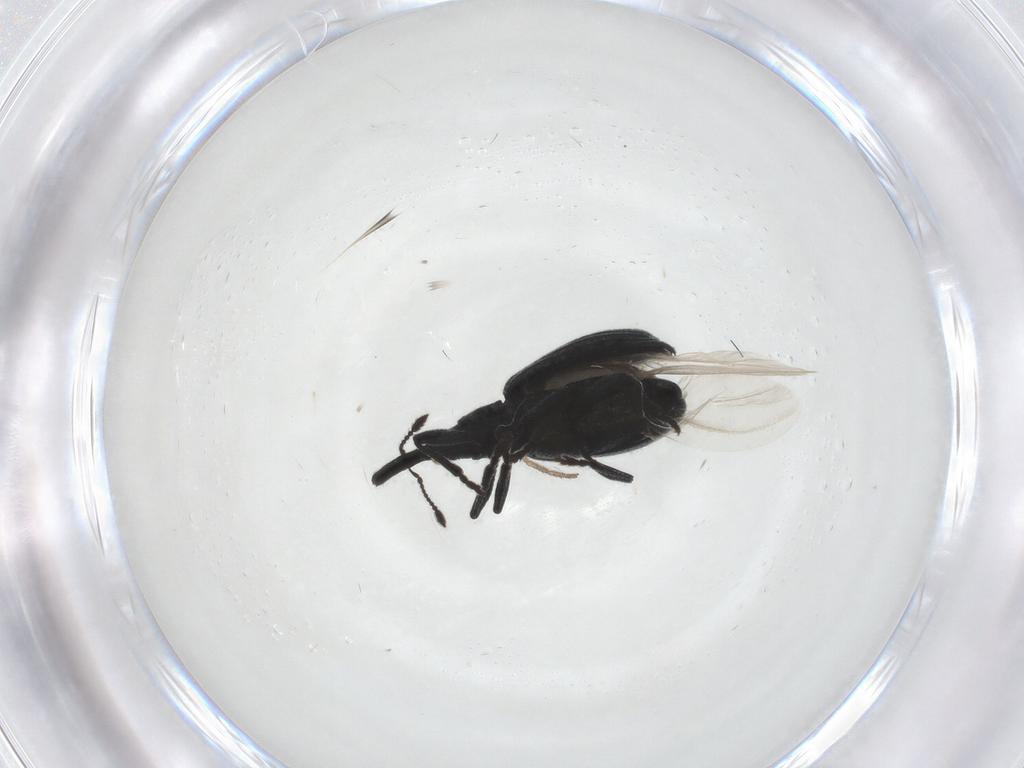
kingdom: Animalia
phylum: Arthropoda
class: Insecta
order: Coleoptera
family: Brentidae
